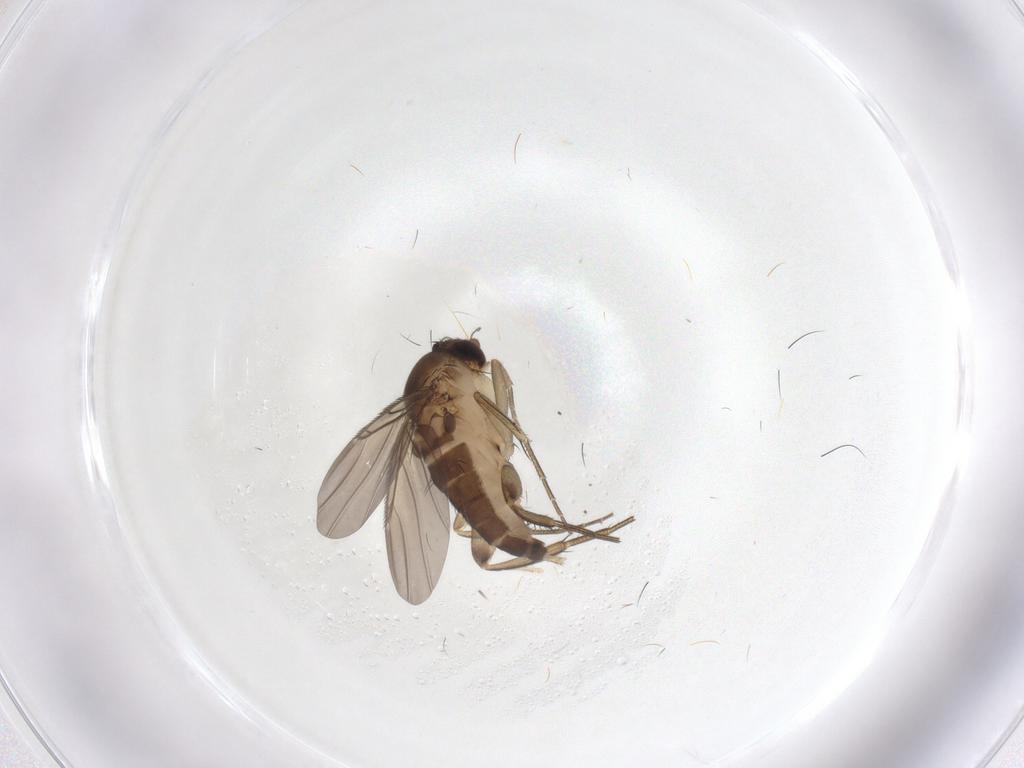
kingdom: Animalia
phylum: Arthropoda
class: Insecta
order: Diptera
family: Phoridae
